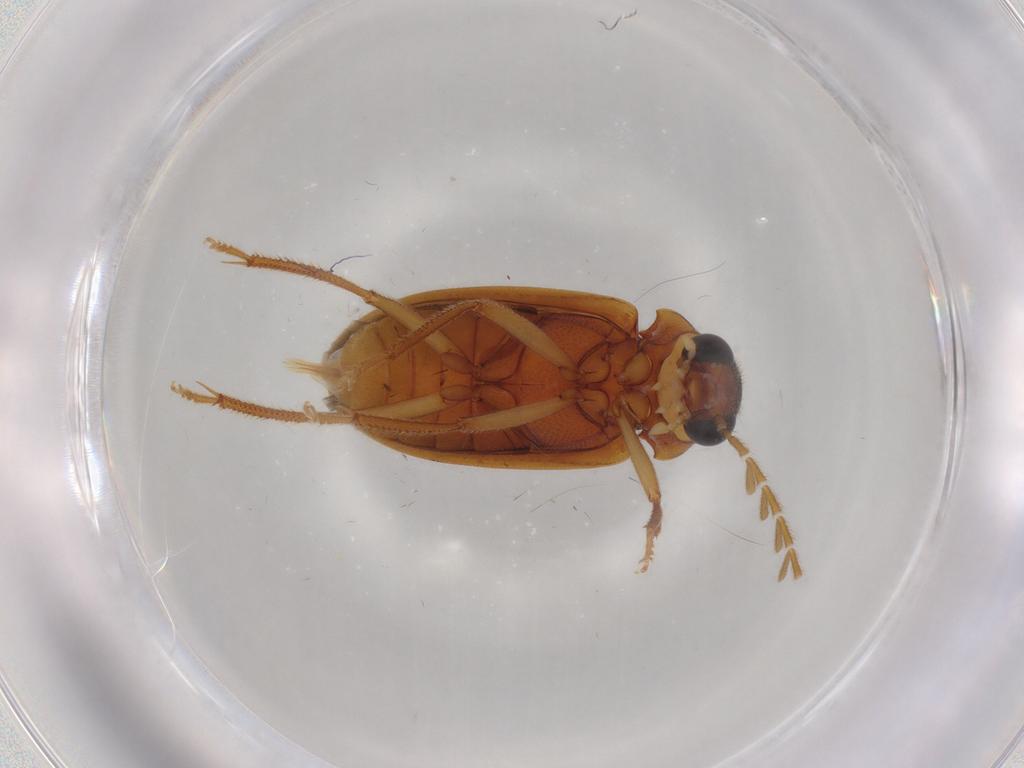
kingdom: Animalia
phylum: Arthropoda
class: Insecta
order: Coleoptera
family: Ptilodactylidae
